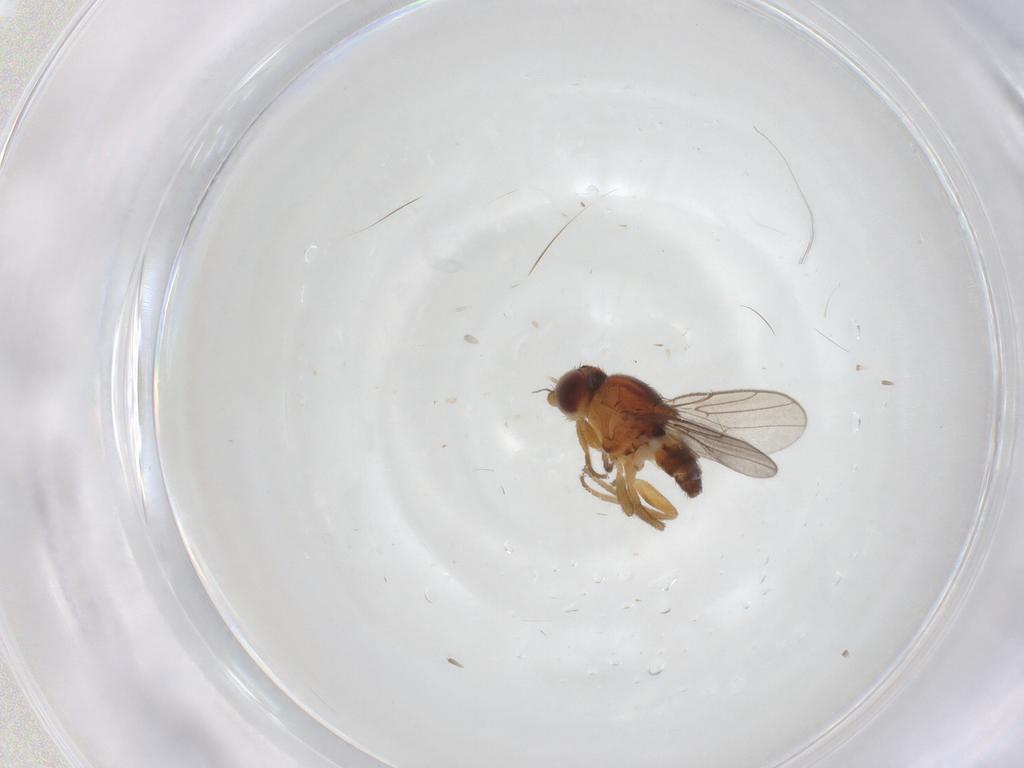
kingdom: Animalia
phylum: Arthropoda
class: Insecta
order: Diptera
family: Chloropidae
